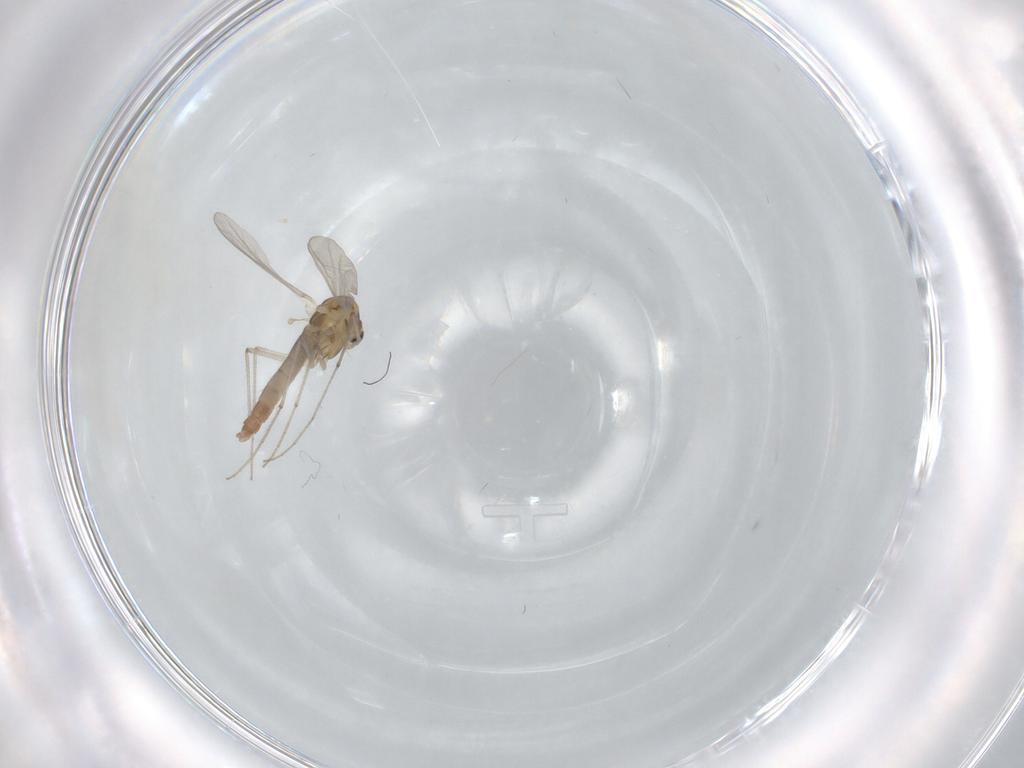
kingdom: Animalia
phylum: Arthropoda
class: Insecta
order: Diptera
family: Chironomidae
